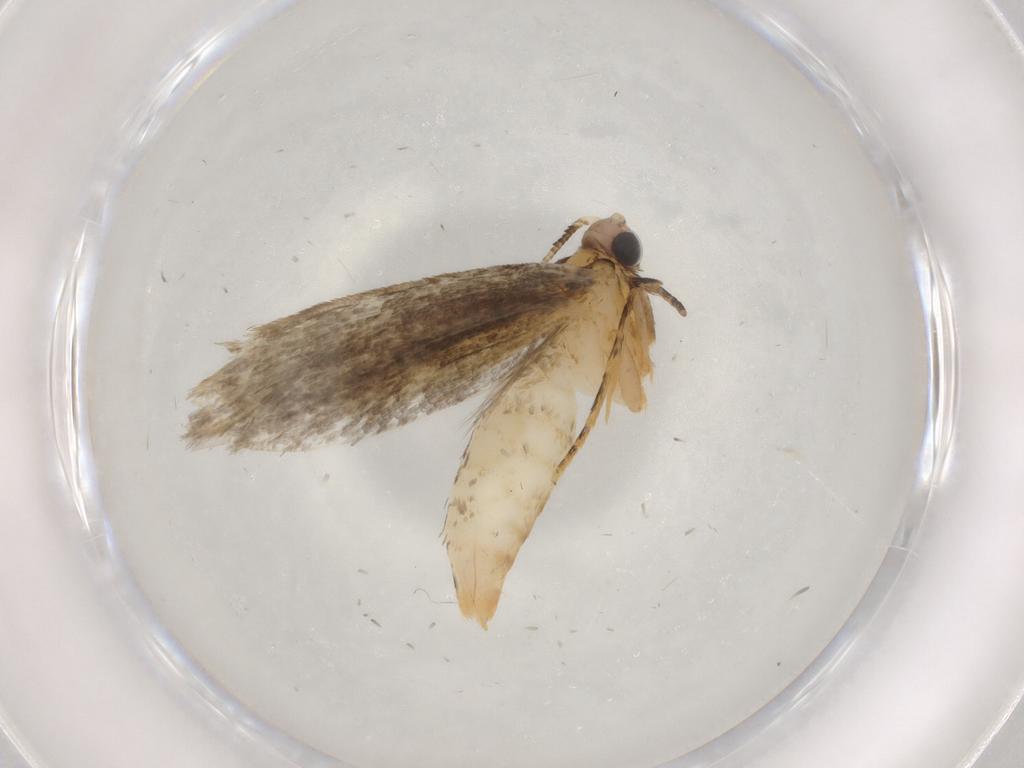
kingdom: Animalia
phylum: Arthropoda
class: Insecta
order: Lepidoptera
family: Tineidae
